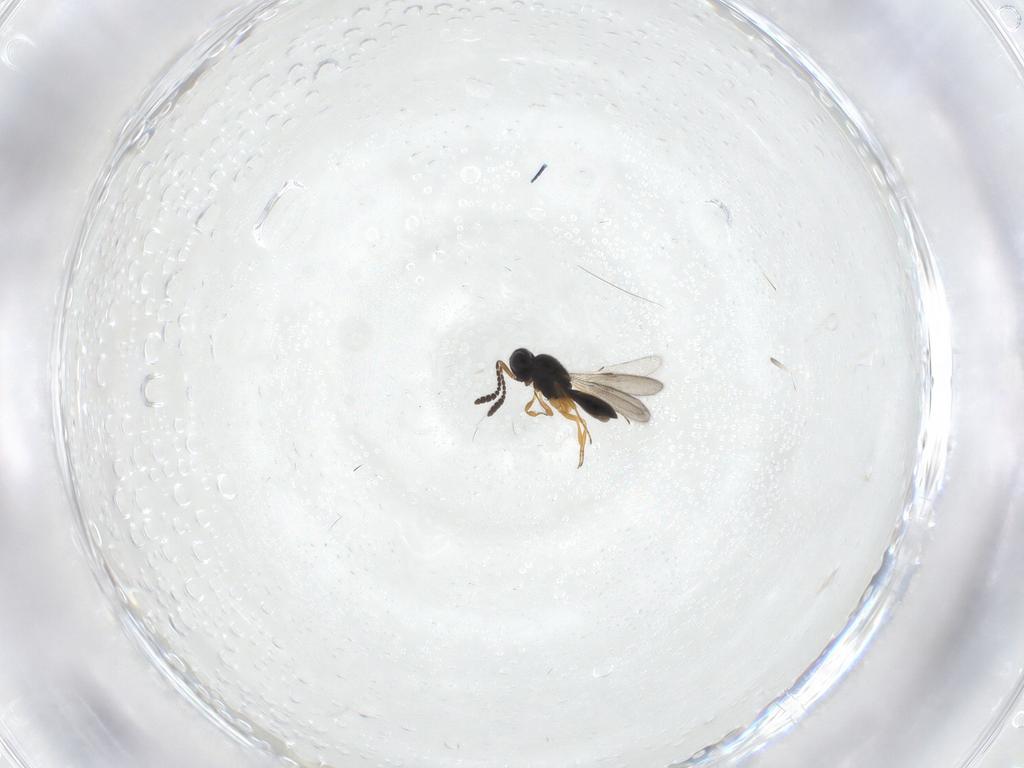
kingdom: Animalia
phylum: Arthropoda
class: Insecta
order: Hymenoptera
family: Scelionidae
